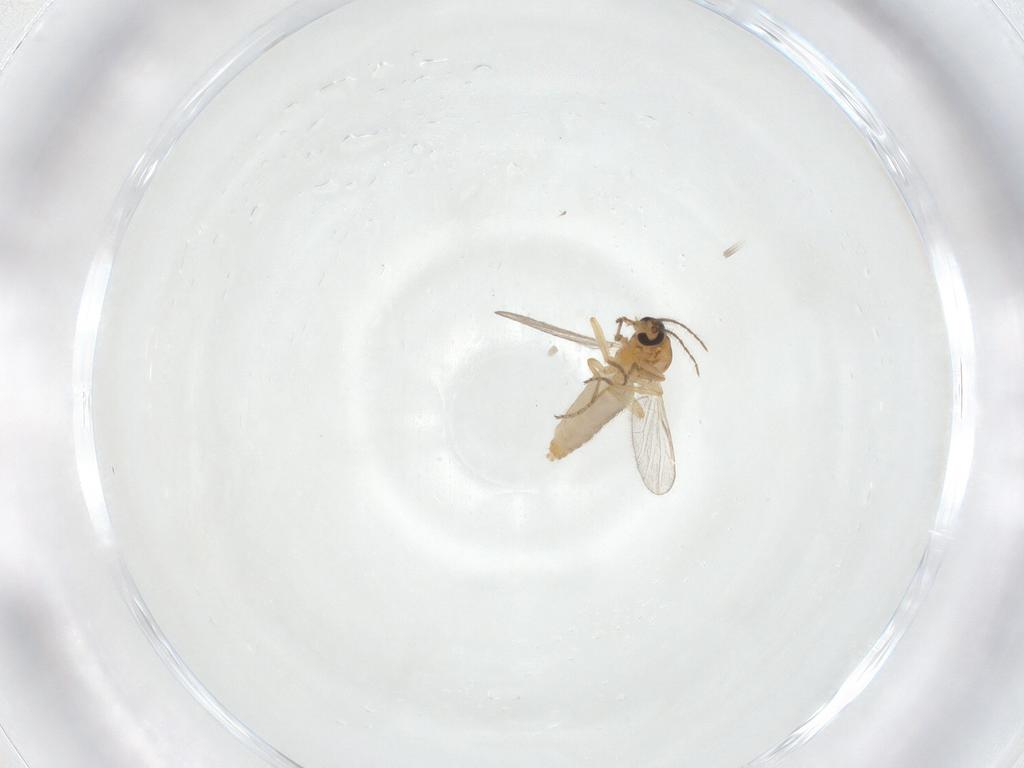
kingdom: Animalia
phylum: Arthropoda
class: Insecta
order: Diptera
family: Ceratopogonidae
